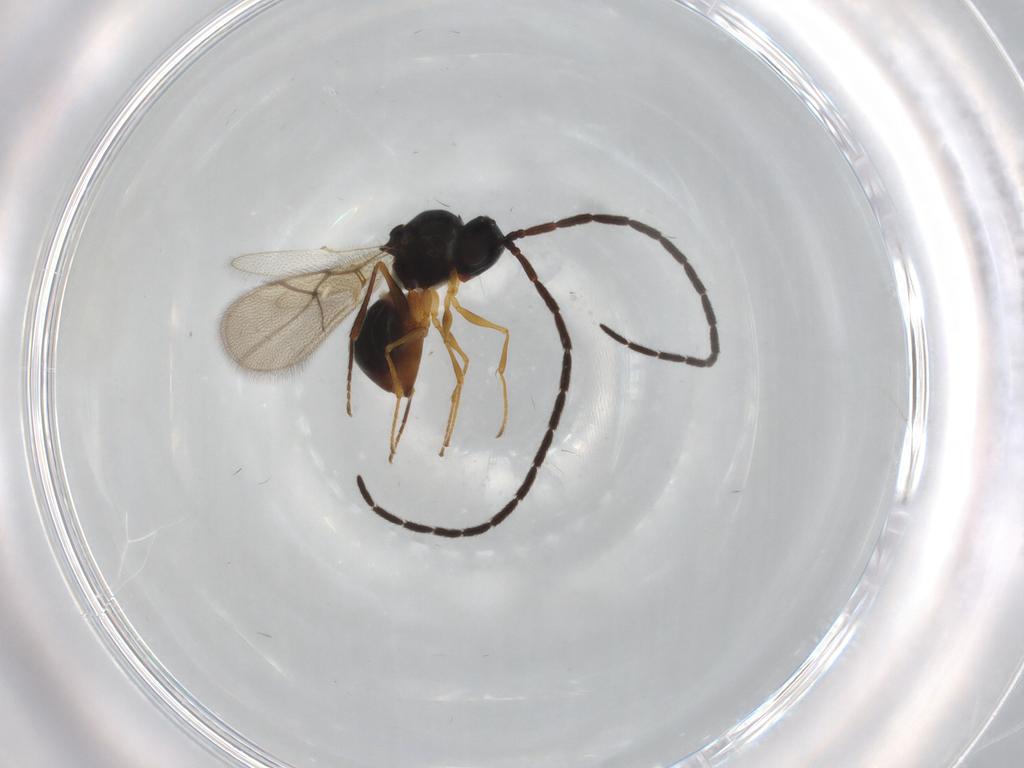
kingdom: Animalia
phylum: Arthropoda
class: Insecta
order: Hymenoptera
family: Figitidae
